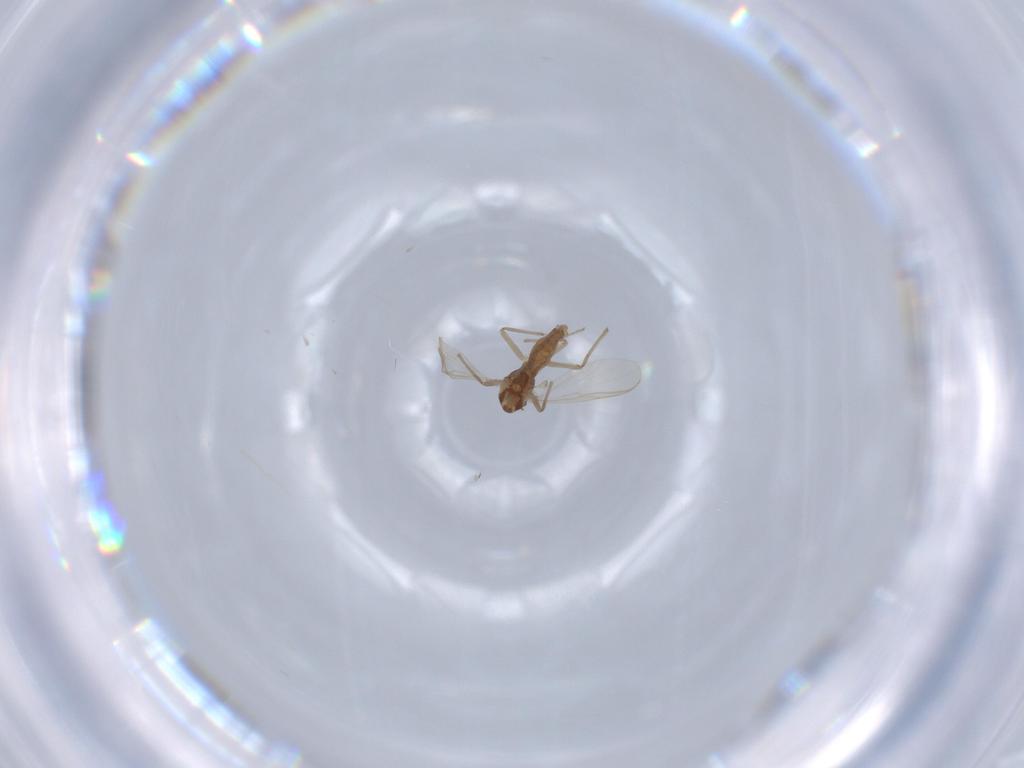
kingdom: Animalia
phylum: Arthropoda
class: Insecta
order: Diptera
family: Chironomidae
